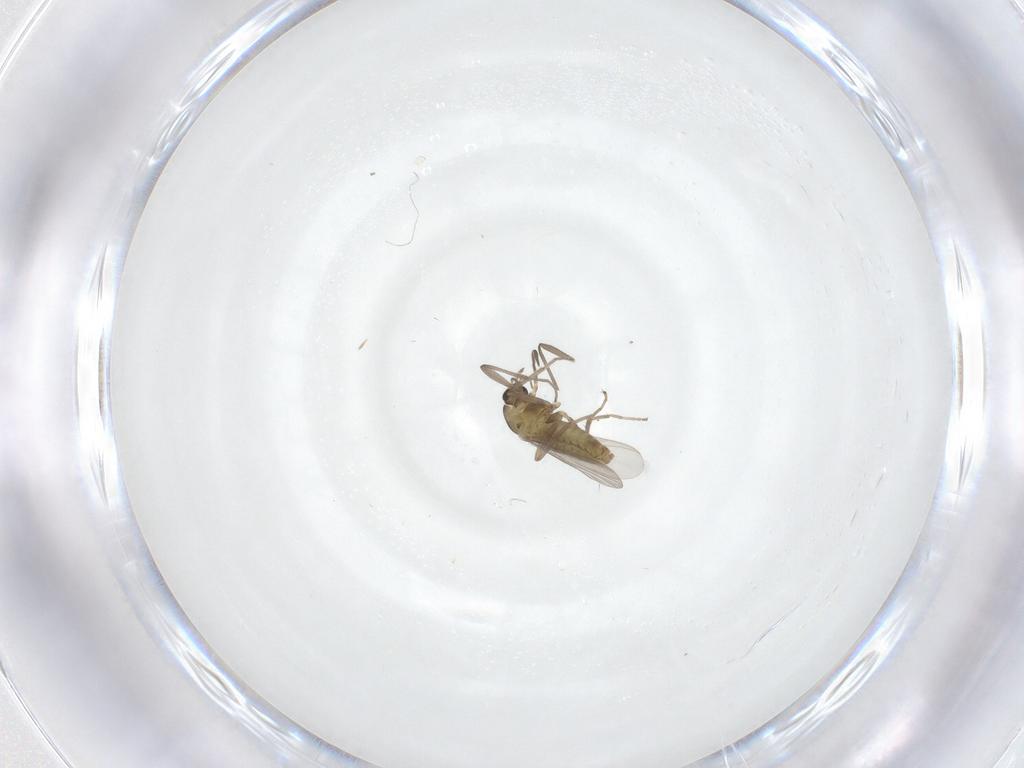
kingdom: Animalia
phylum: Arthropoda
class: Insecta
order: Diptera
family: Chironomidae
